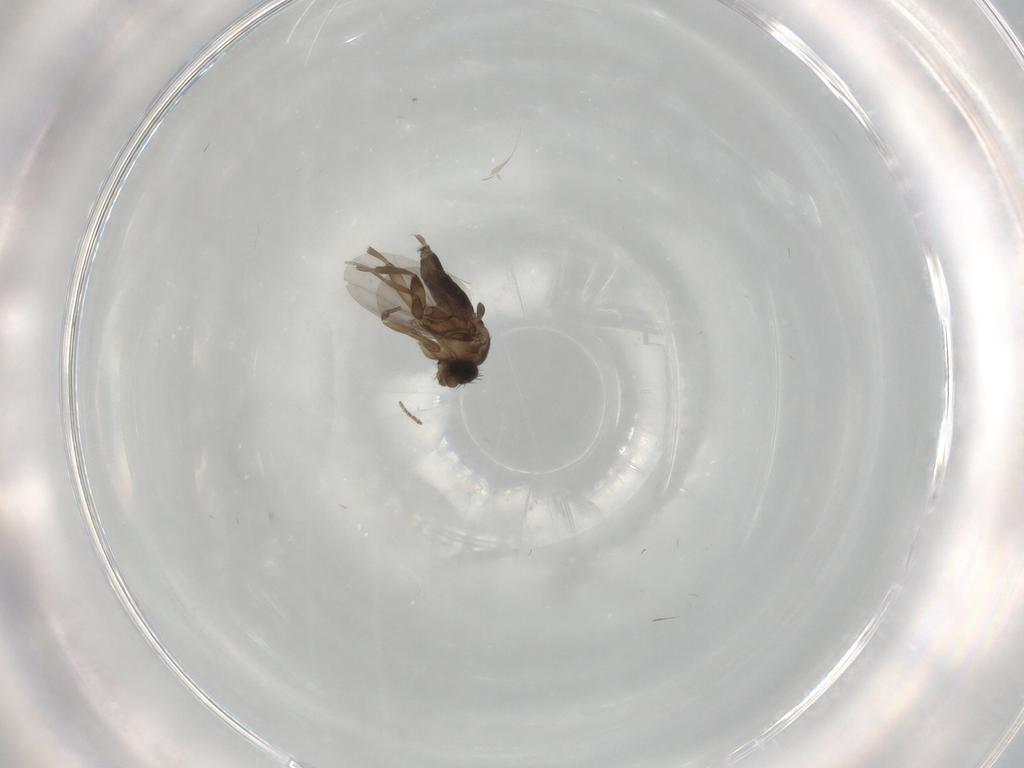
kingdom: Animalia
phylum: Arthropoda
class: Insecta
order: Diptera
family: Phoridae
